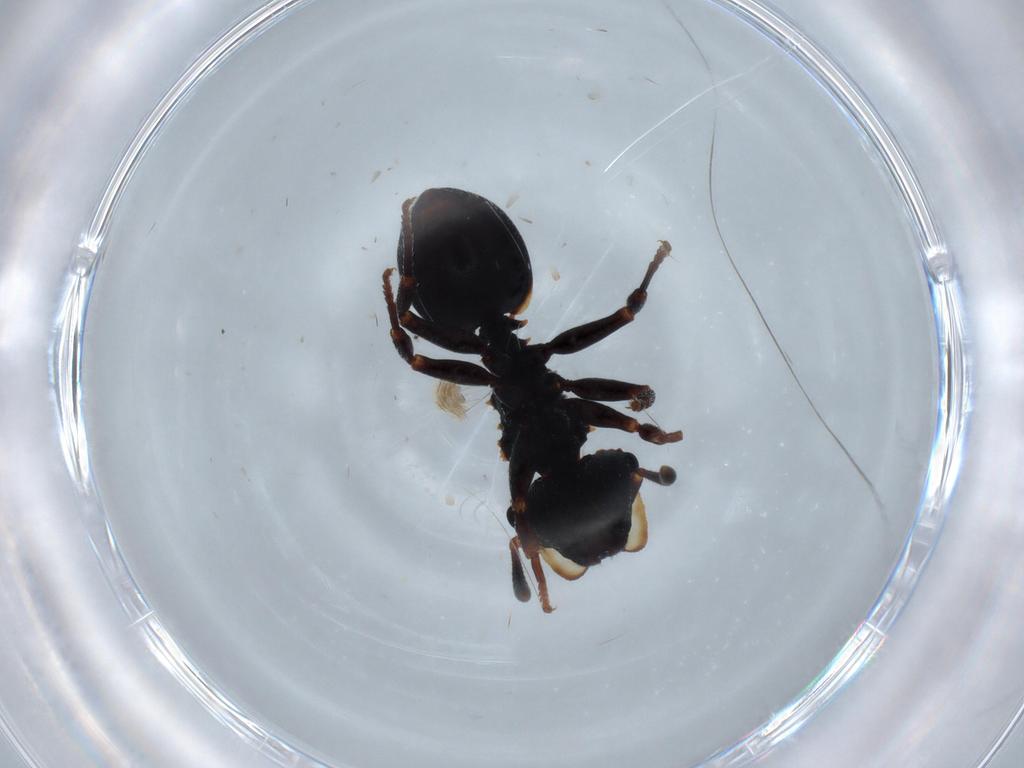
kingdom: Animalia
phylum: Arthropoda
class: Insecta
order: Hymenoptera
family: Formicidae
